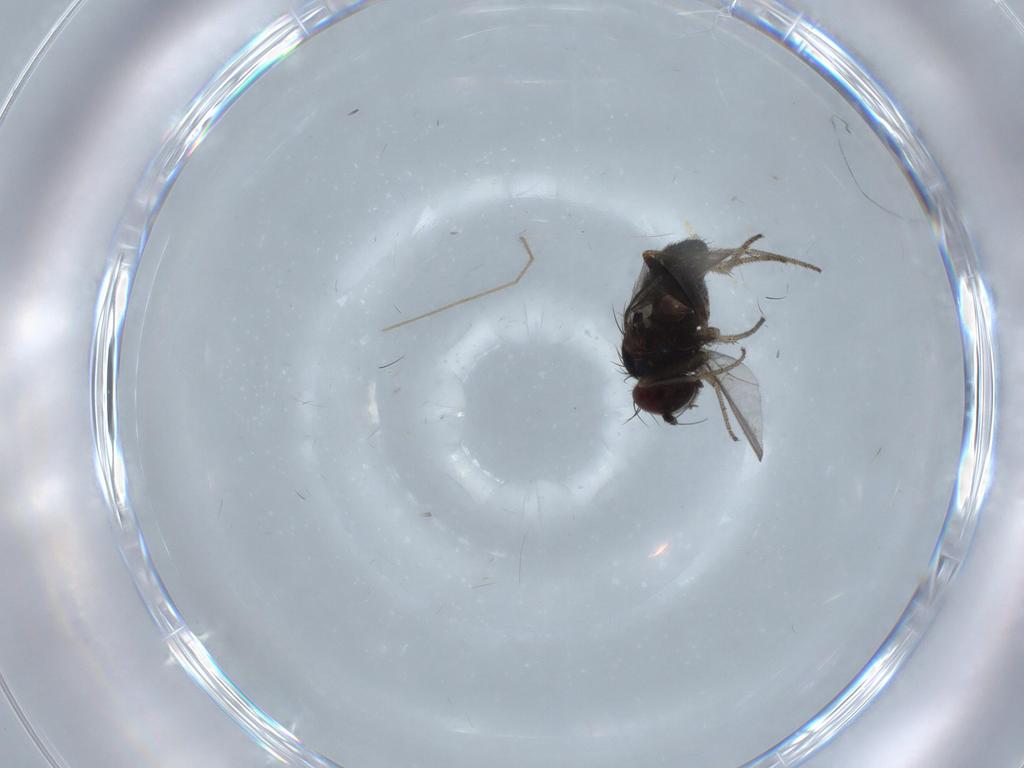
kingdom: Animalia
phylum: Arthropoda
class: Insecta
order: Diptera
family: Dolichopodidae
